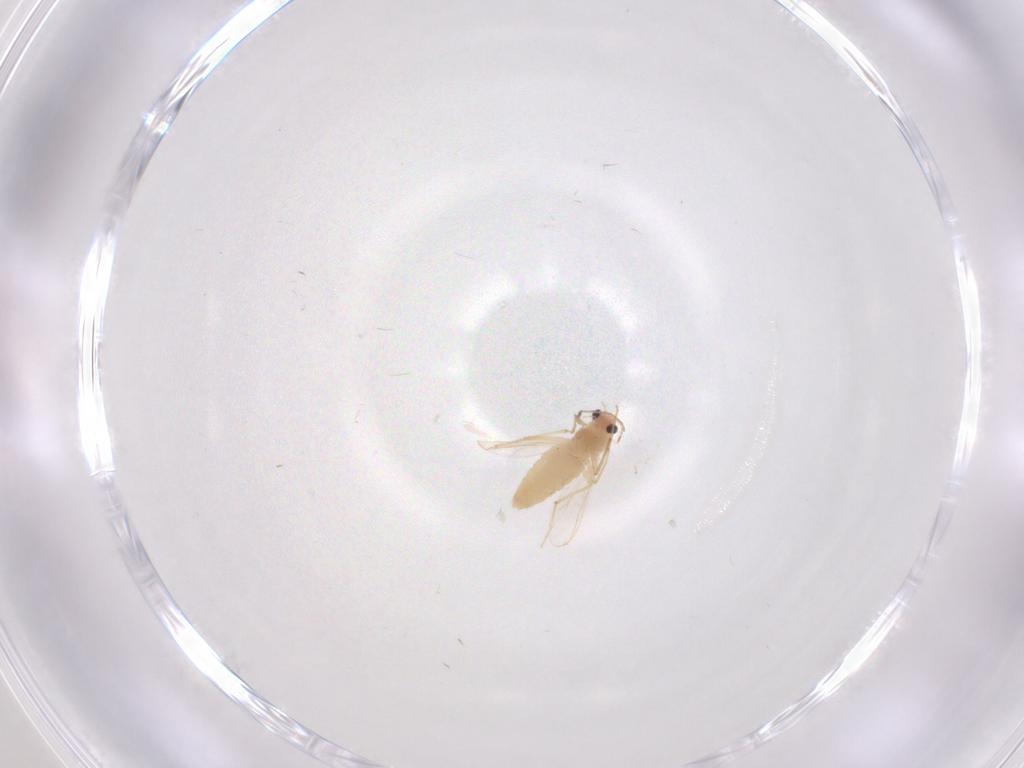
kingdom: Animalia
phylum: Arthropoda
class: Insecta
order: Diptera
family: Chironomidae
